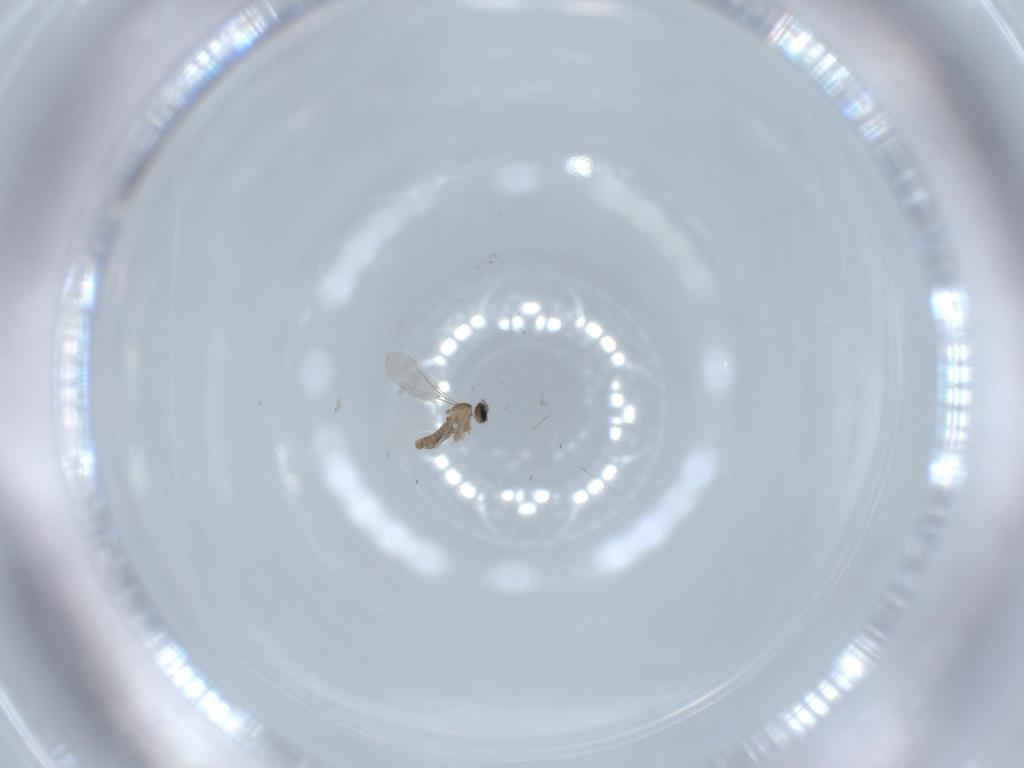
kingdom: Animalia
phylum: Arthropoda
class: Insecta
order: Diptera
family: Cecidomyiidae
